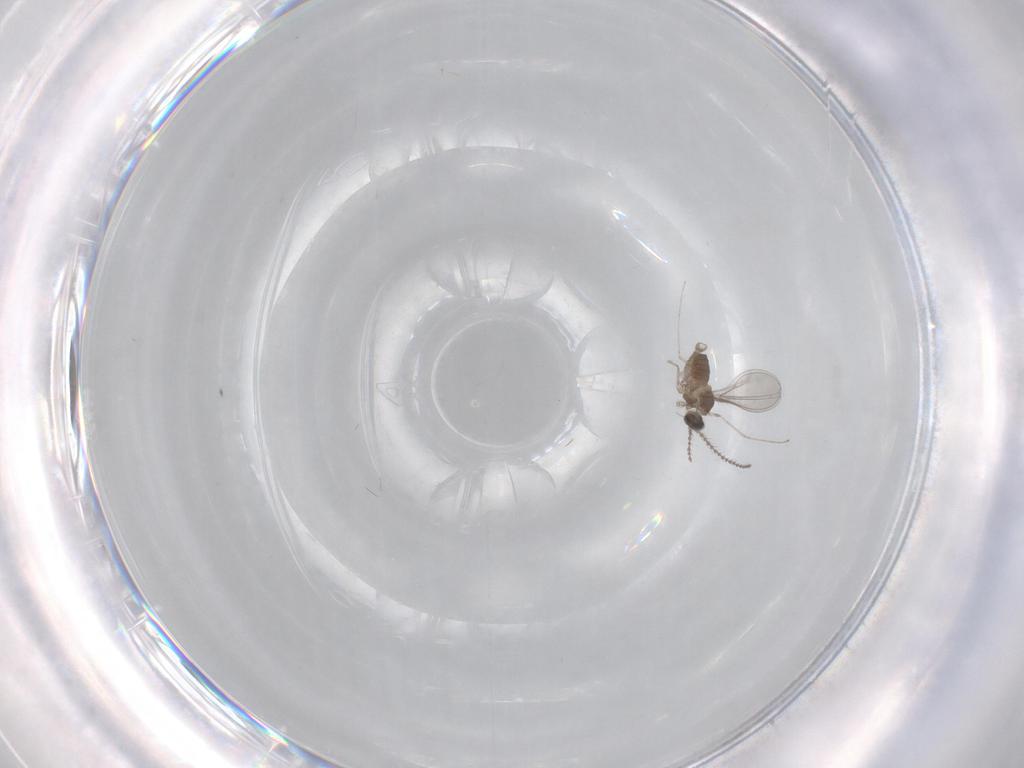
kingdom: Animalia
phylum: Arthropoda
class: Insecta
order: Diptera
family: Cecidomyiidae
